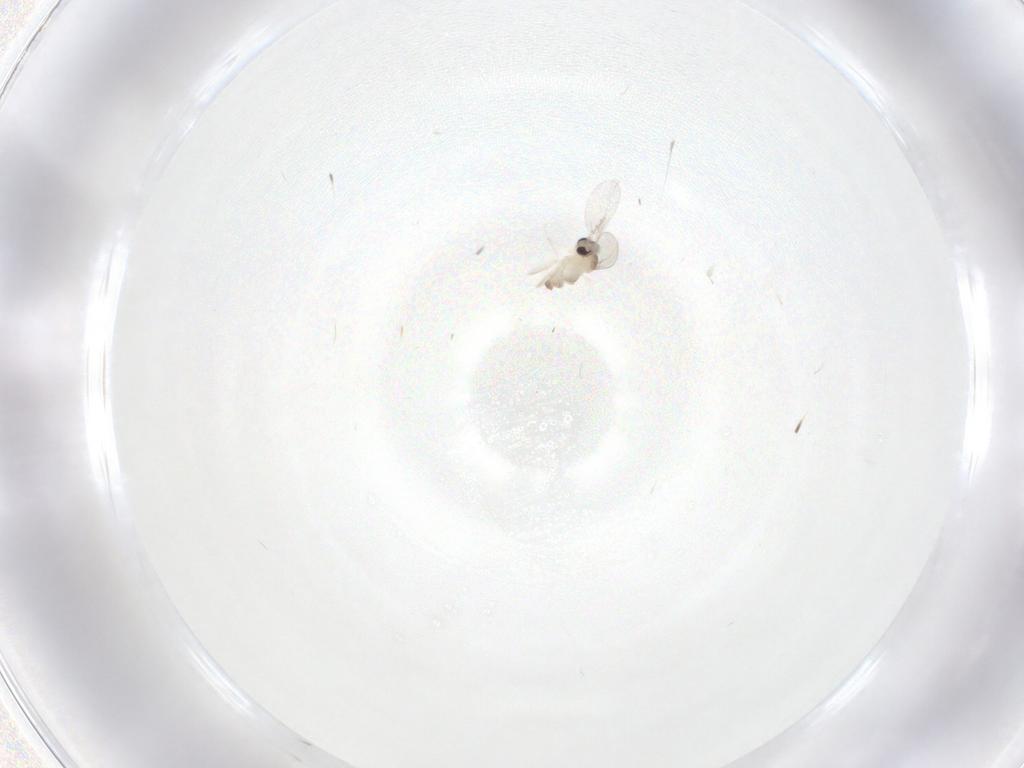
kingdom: Animalia
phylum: Arthropoda
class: Insecta
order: Diptera
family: Cecidomyiidae
